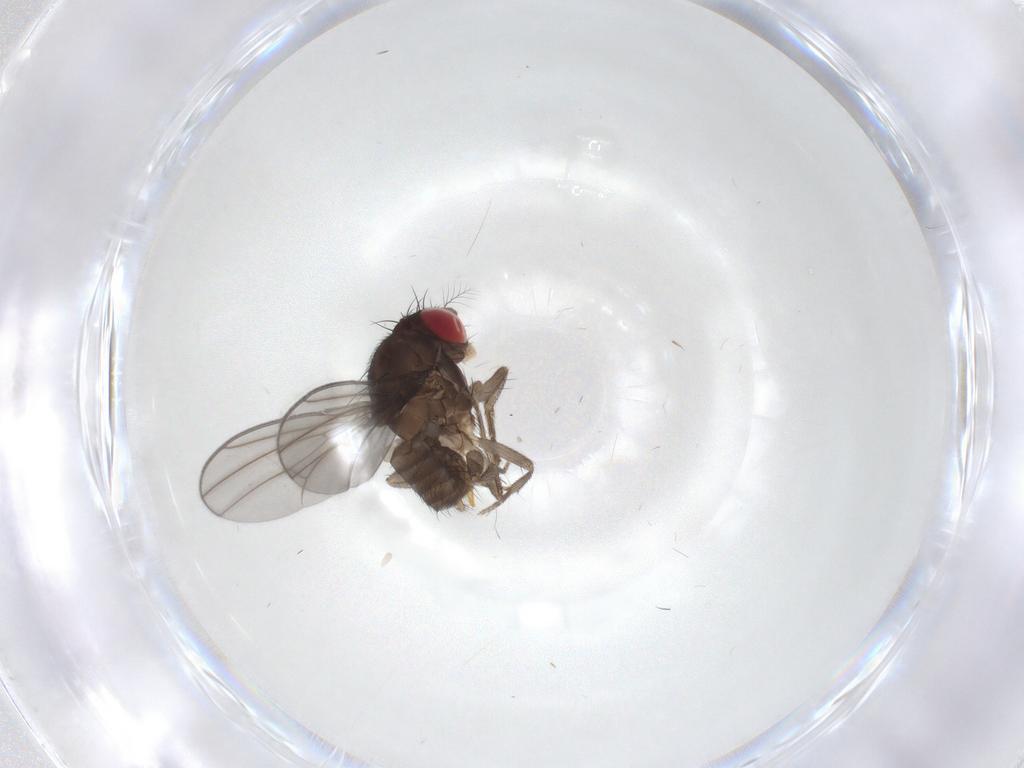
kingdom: Animalia
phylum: Arthropoda
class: Insecta
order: Diptera
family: Drosophilidae
